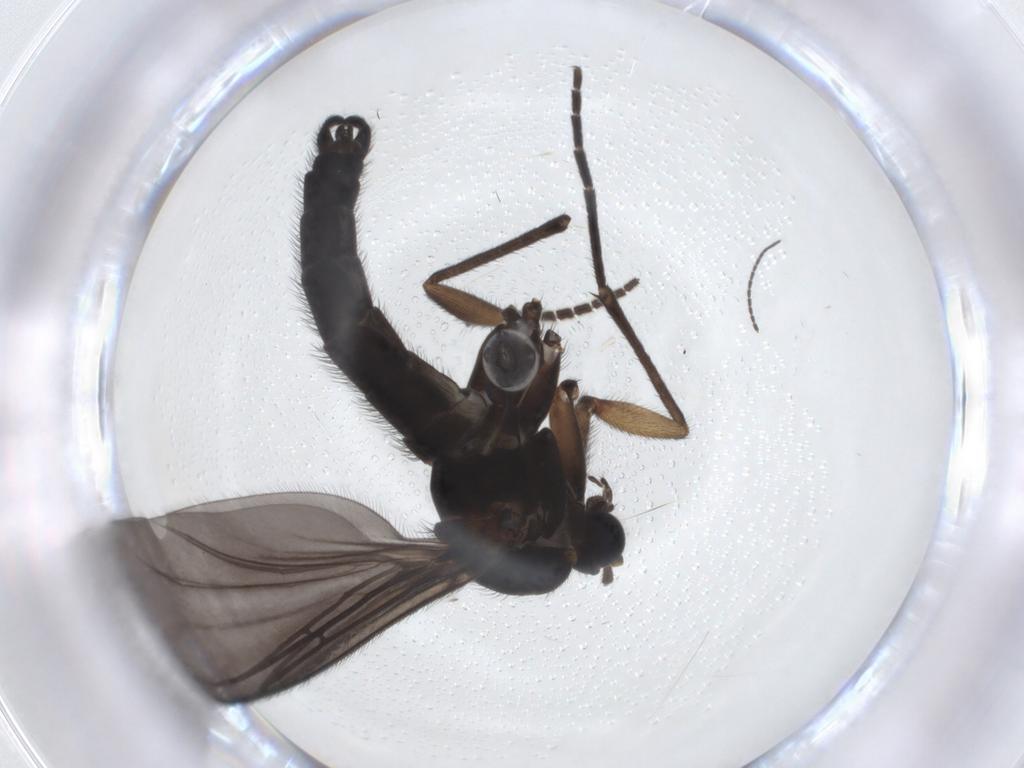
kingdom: Animalia
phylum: Arthropoda
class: Insecta
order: Diptera
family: Sciaridae
